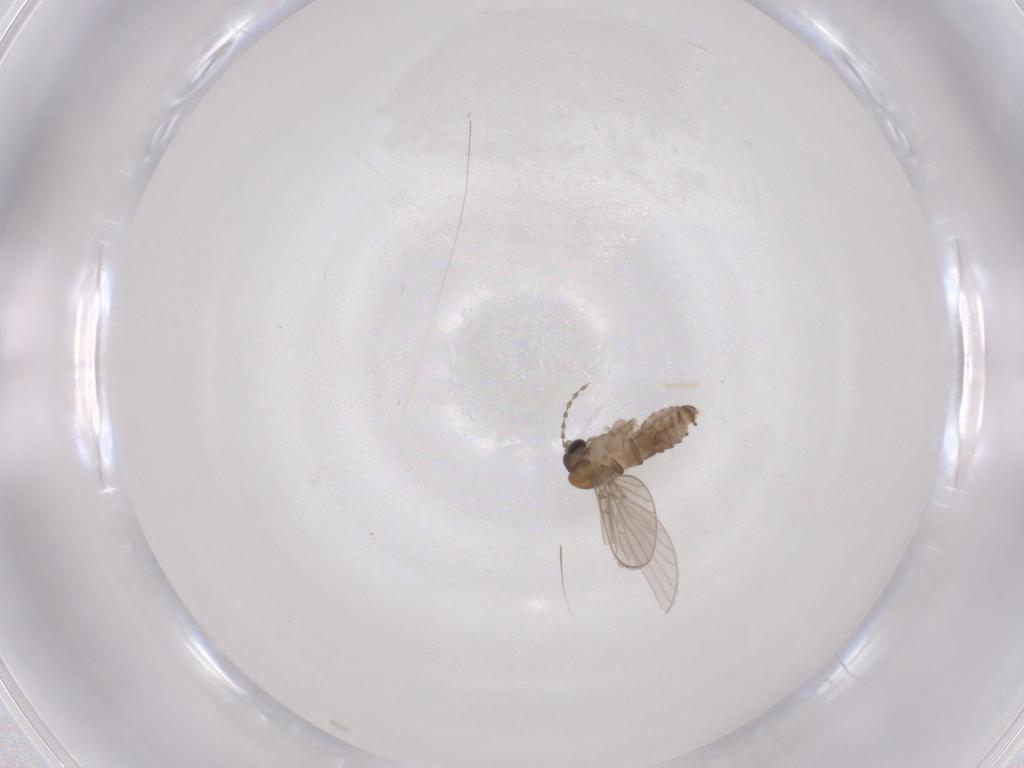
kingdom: Animalia
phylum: Arthropoda
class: Insecta
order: Diptera
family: Psychodidae
